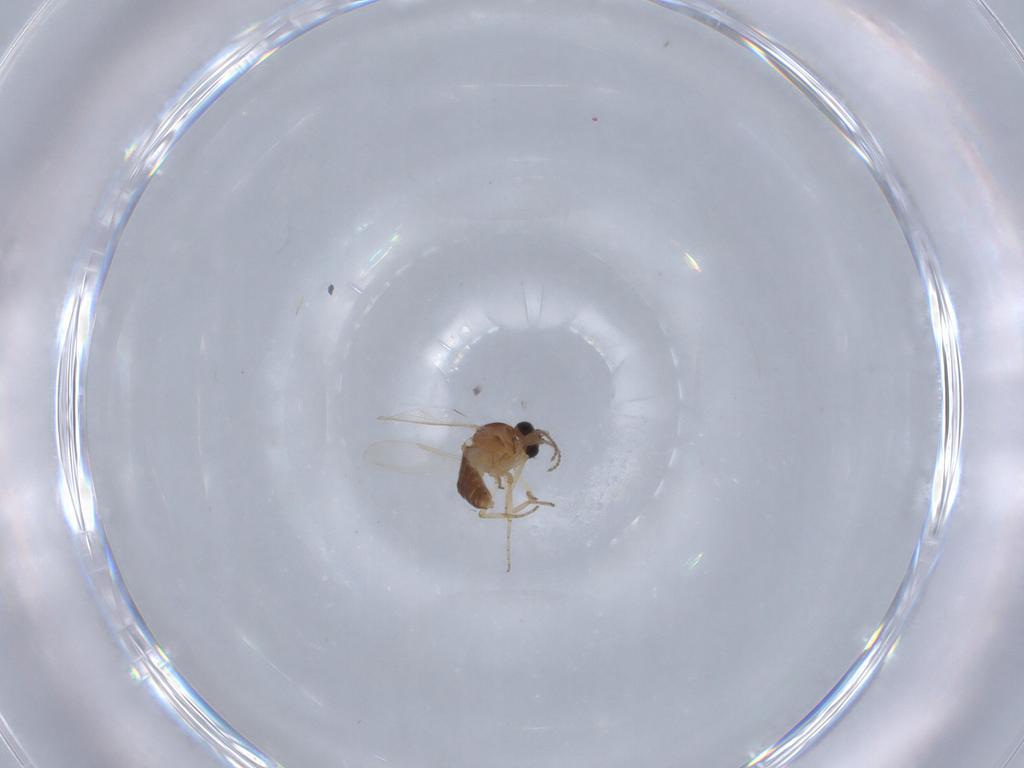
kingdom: Animalia
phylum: Arthropoda
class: Insecta
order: Diptera
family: Ceratopogonidae
